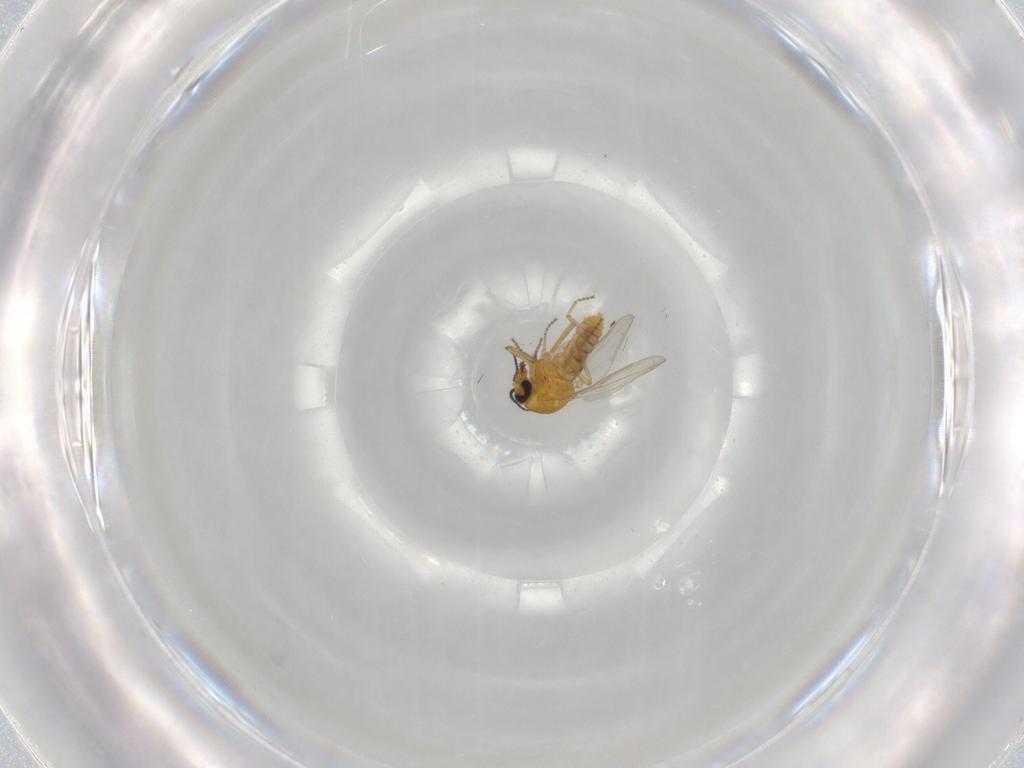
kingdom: Animalia
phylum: Arthropoda
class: Insecta
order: Diptera
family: Ceratopogonidae
